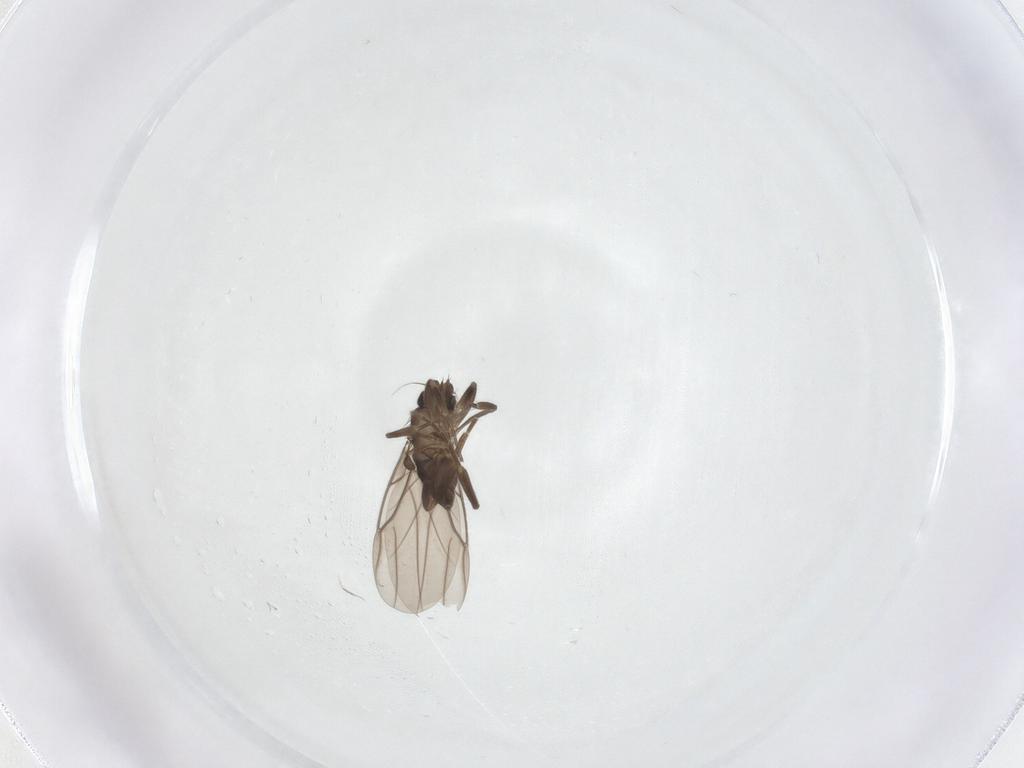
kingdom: Animalia
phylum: Arthropoda
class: Insecta
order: Diptera
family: Phoridae
